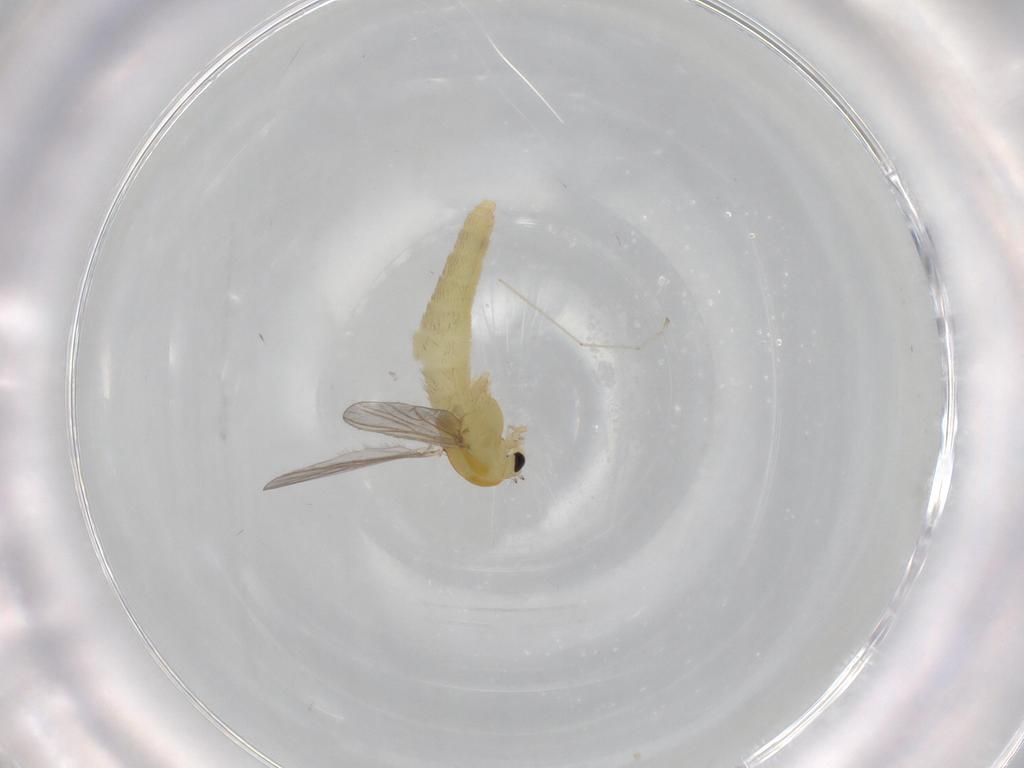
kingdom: Animalia
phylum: Arthropoda
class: Insecta
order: Diptera
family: Cecidomyiidae
